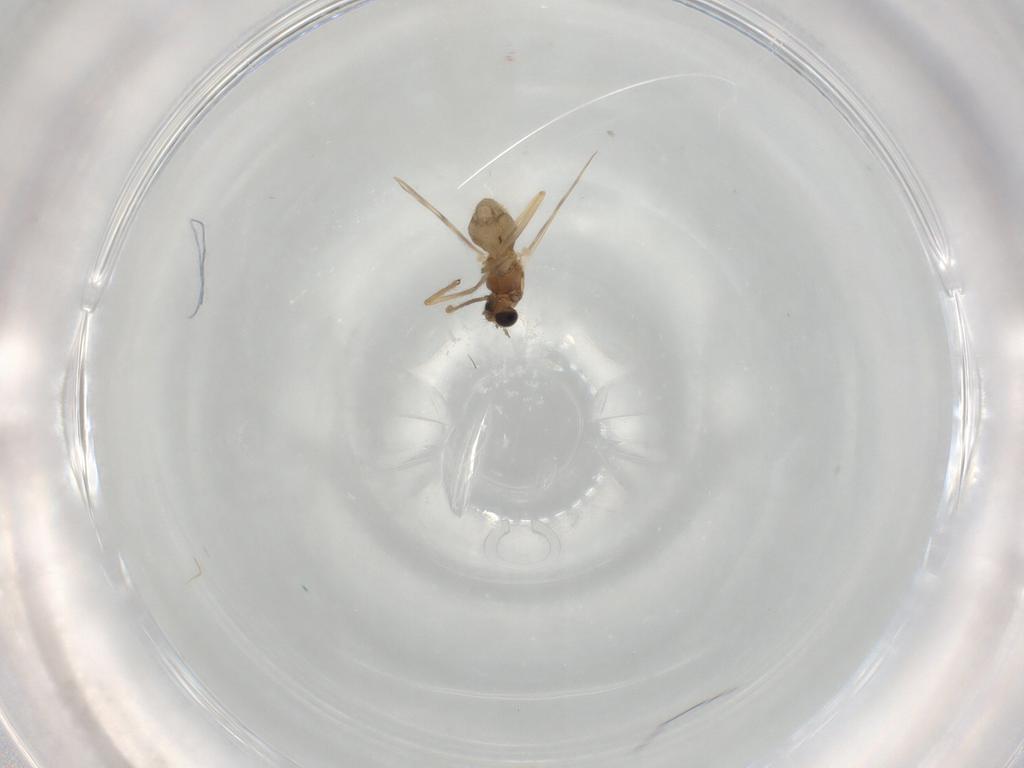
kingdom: Animalia
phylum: Arthropoda
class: Insecta
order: Diptera
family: Chironomidae
